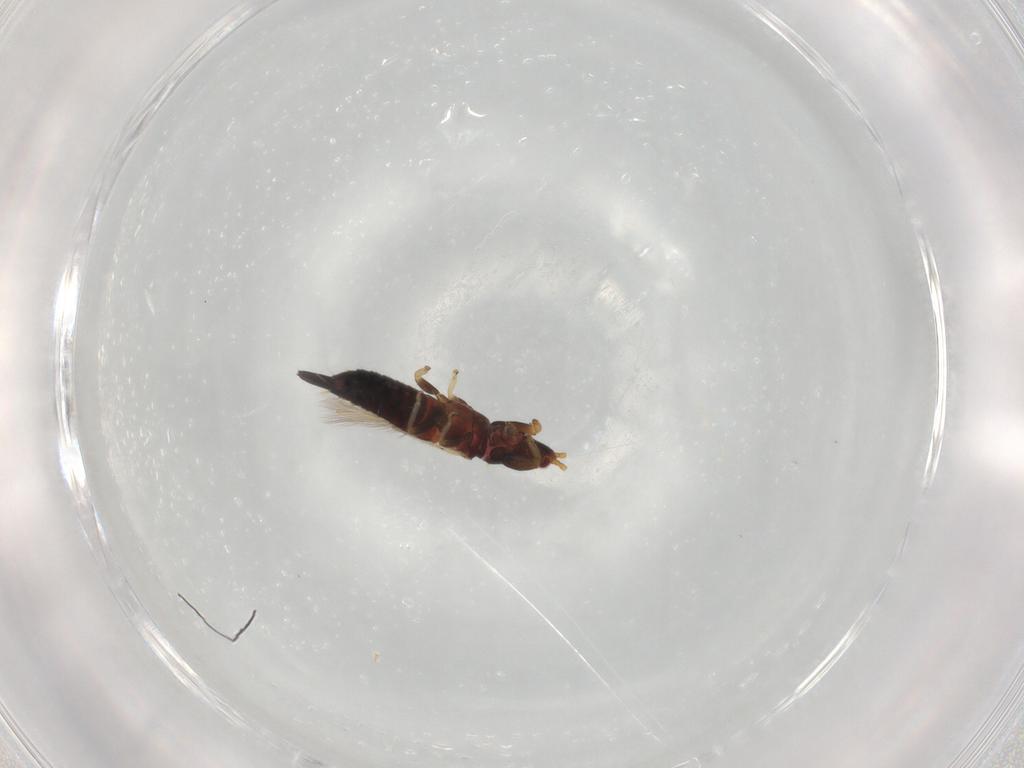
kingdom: Animalia
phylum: Arthropoda
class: Insecta
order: Thysanoptera
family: Phlaeothripidae
